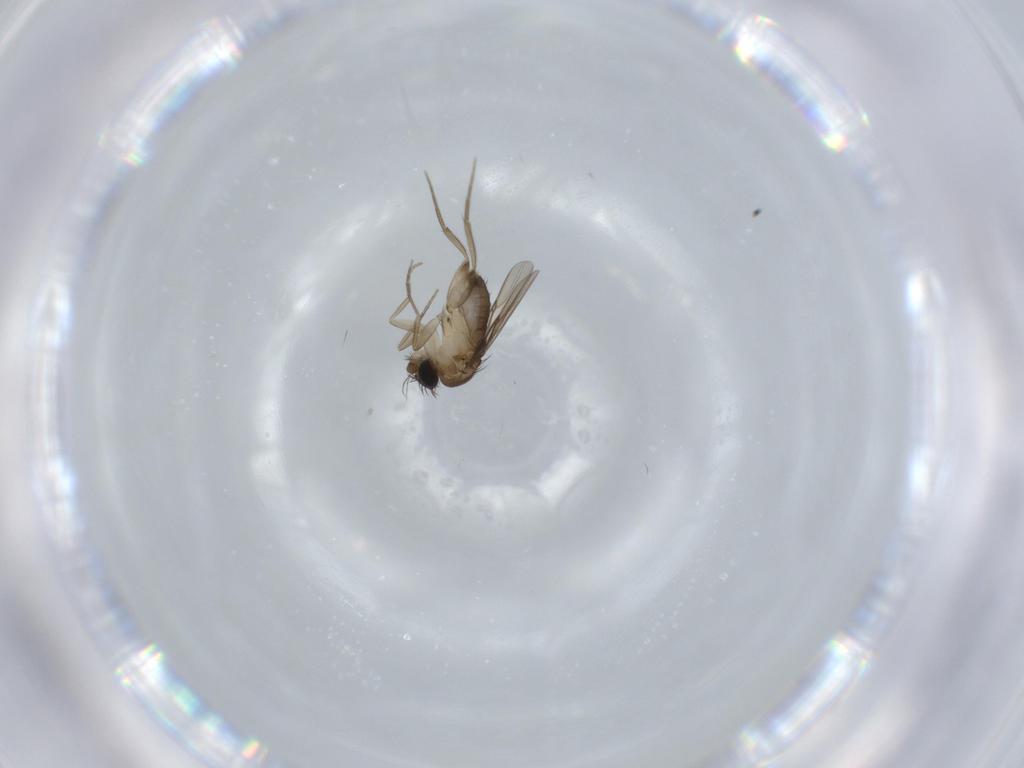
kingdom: Animalia
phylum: Arthropoda
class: Insecta
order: Diptera
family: Phoridae
